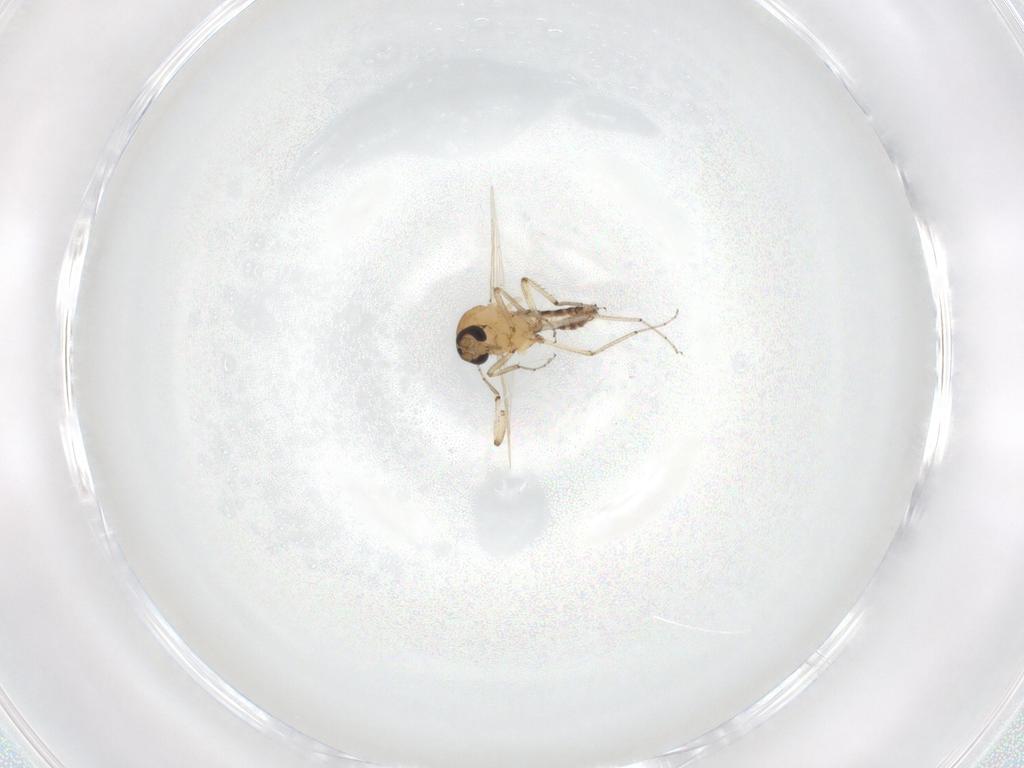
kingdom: Animalia
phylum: Arthropoda
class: Insecta
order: Diptera
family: Ceratopogonidae
